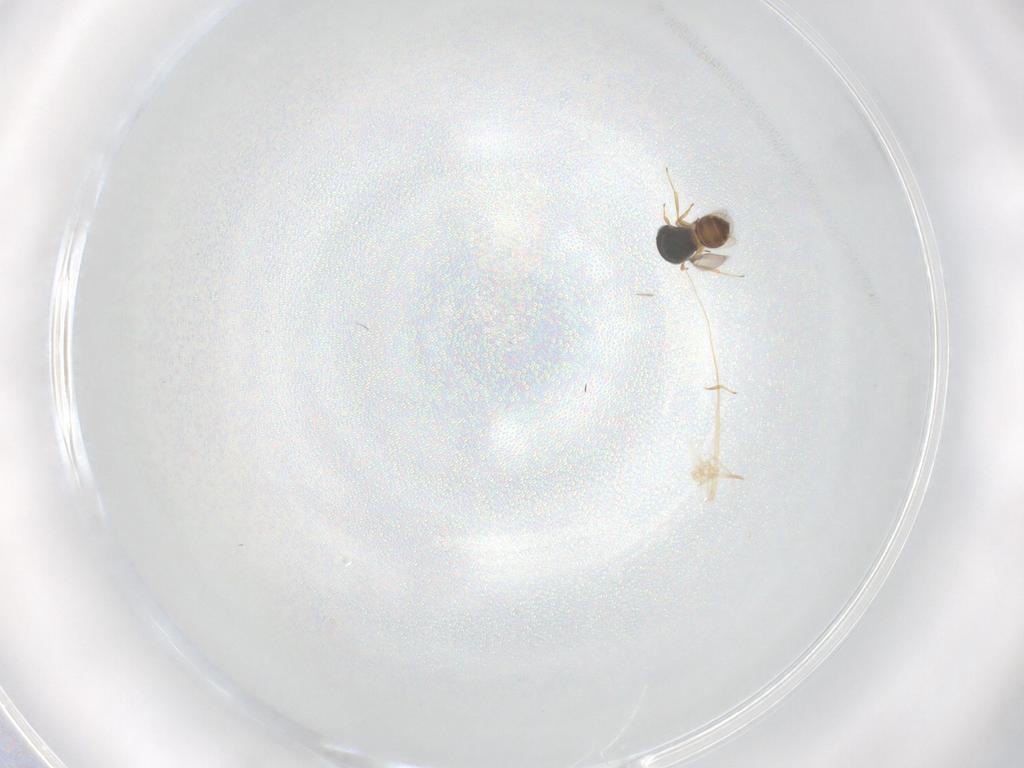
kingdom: Animalia
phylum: Arthropoda
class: Insecta
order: Hymenoptera
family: Scelionidae
